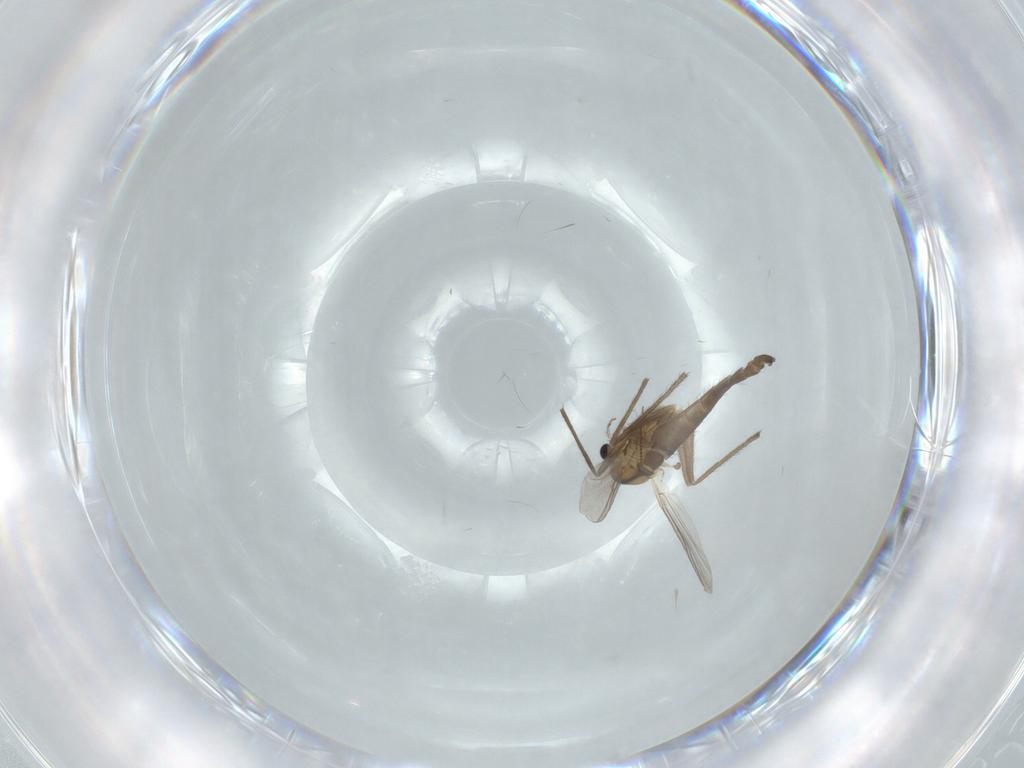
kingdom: Animalia
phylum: Arthropoda
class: Insecta
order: Diptera
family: Chironomidae
